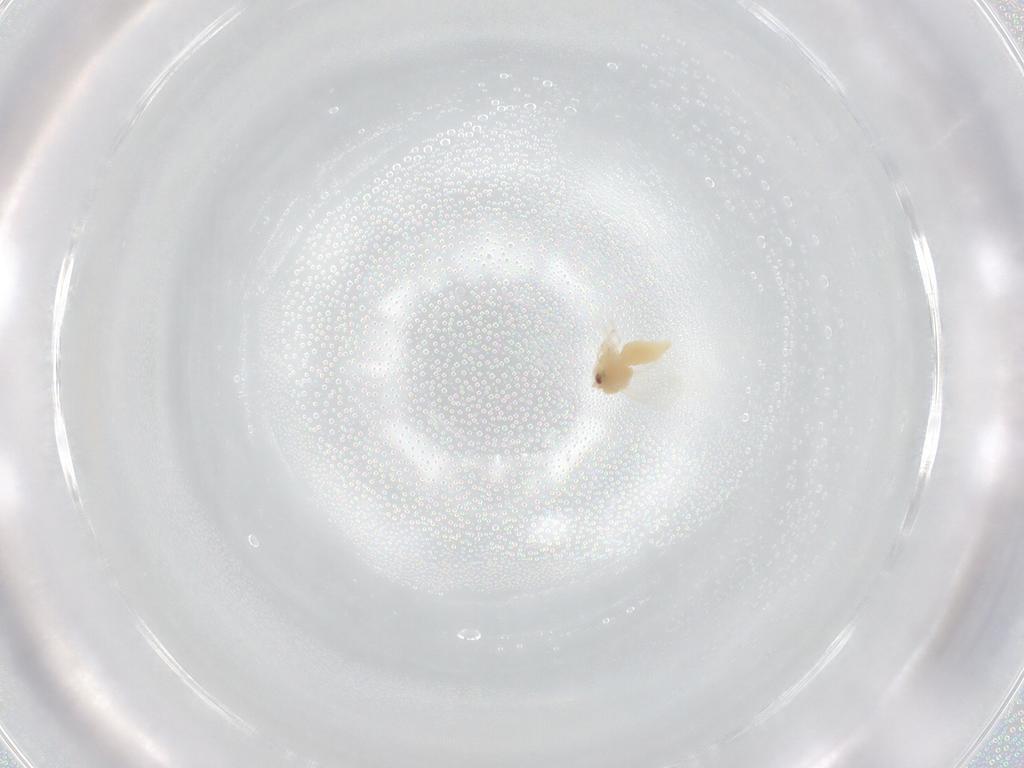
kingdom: Animalia
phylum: Arthropoda
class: Insecta
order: Hemiptera
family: Aleyrodidae
